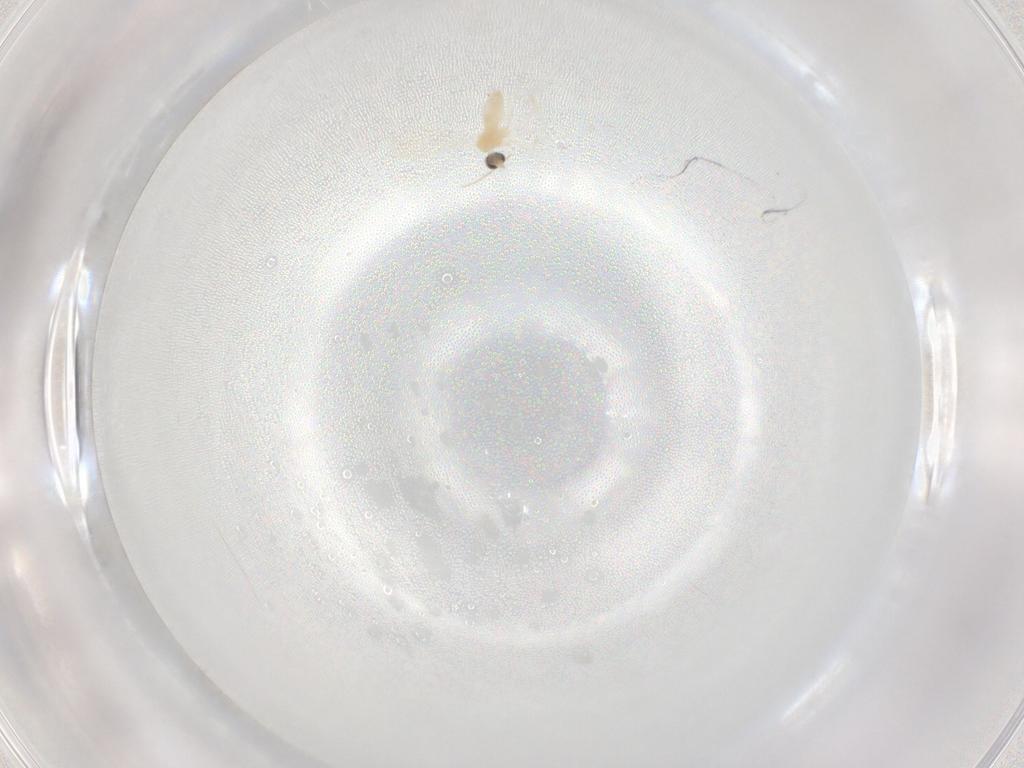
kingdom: Animalia
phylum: Arthropoda
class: Insecta
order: Diptera
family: Cecidomyiidae
